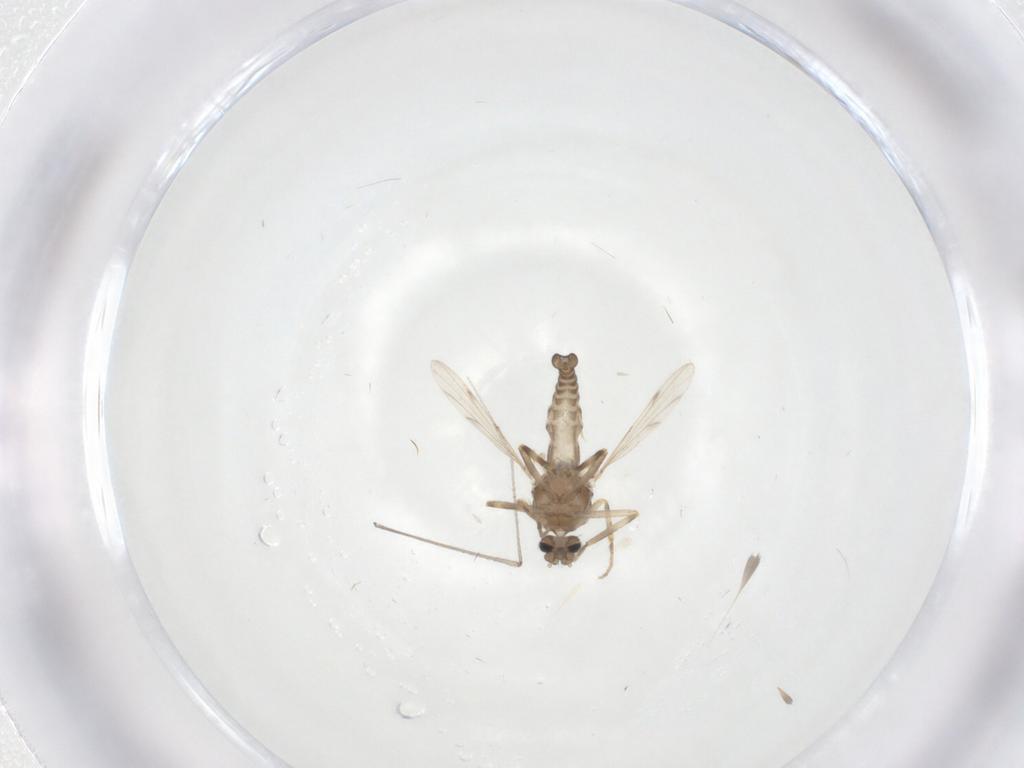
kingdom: Animalia
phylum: Arthropoda
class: Insecta
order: Diptera
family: Ceratopogonidae
